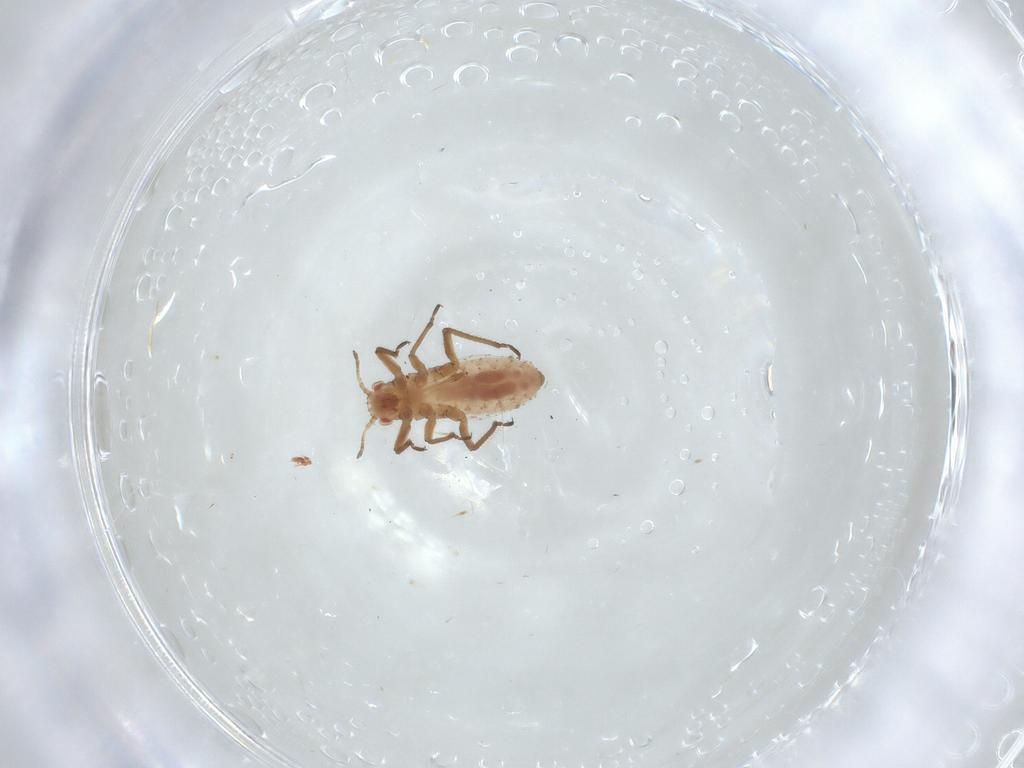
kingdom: Animalia
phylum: Arthropoda
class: Insecta
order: Hemiptera
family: Lachnidae
